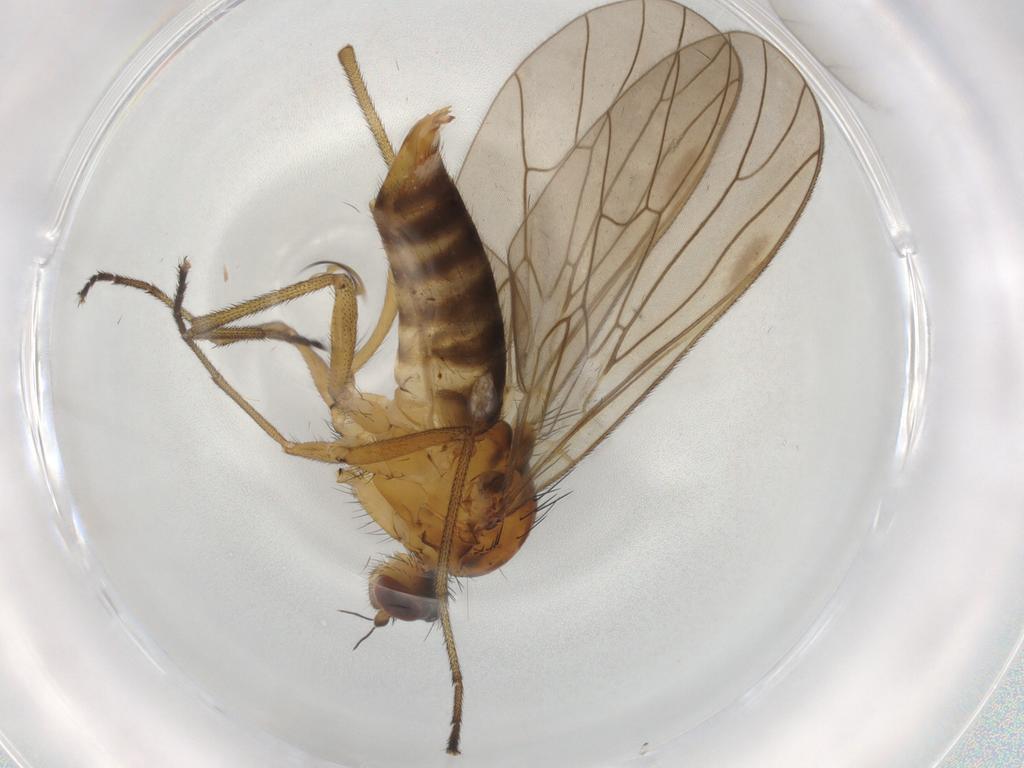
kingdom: Animalia
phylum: Arthropoda
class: Insecta
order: Diptera
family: Brachystomatidae
